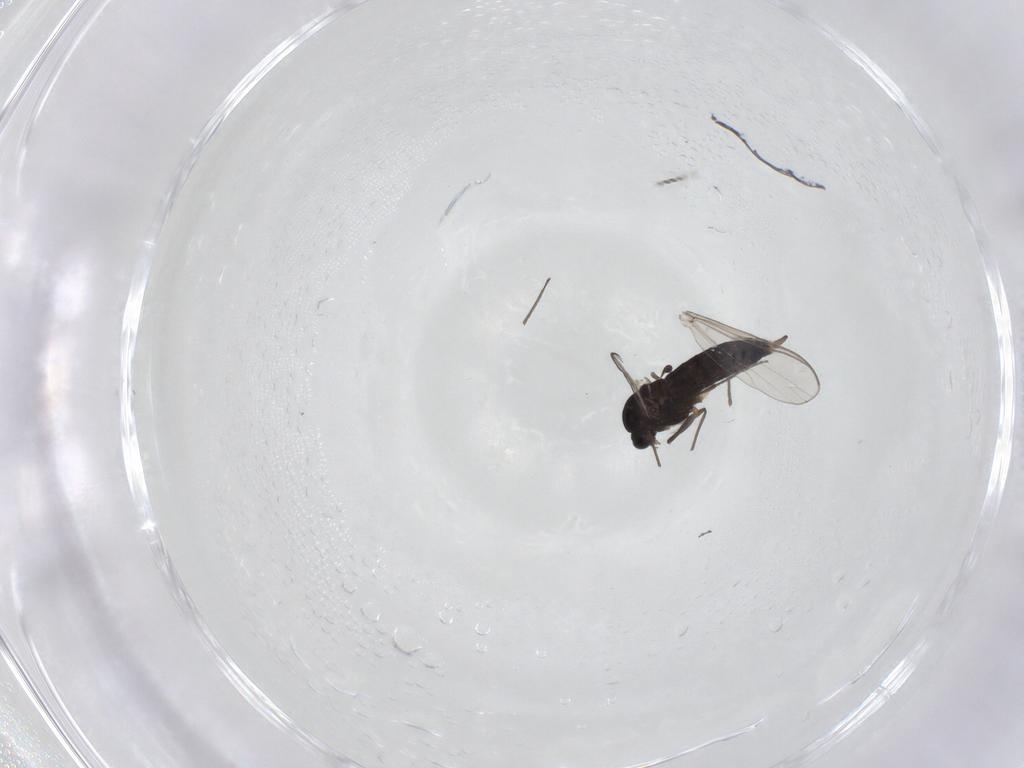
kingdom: Animalia
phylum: Arthropoda
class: Insecta
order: Diptera
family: Chironomidae
